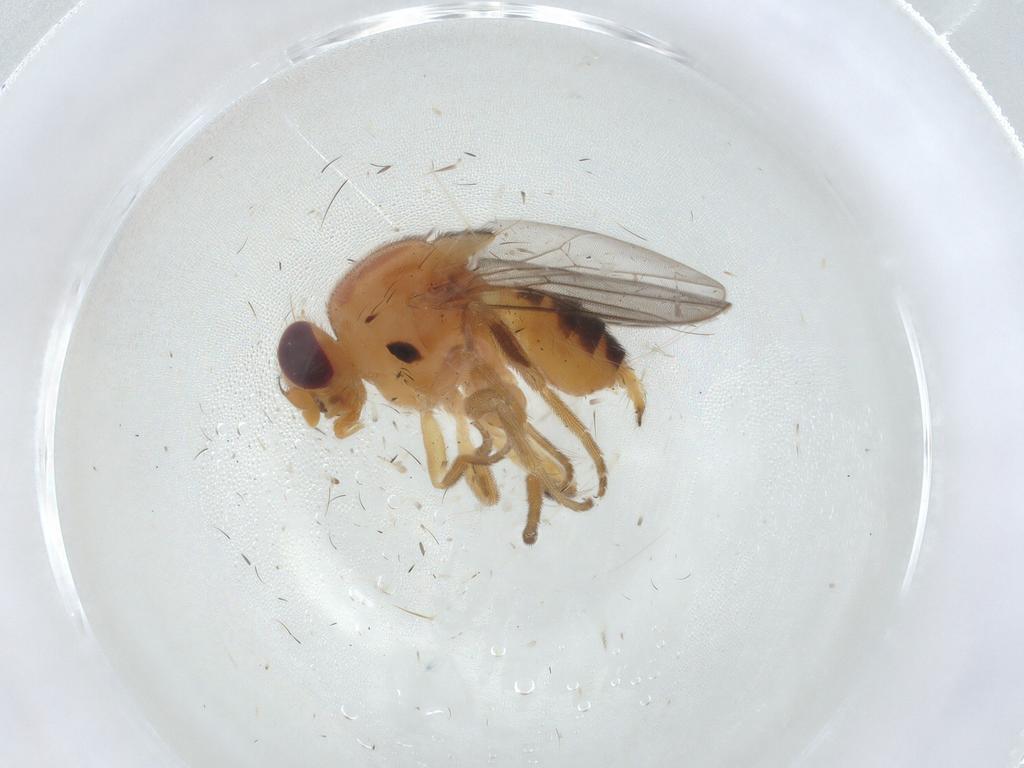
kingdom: Animalia
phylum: Arthropoda
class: Insecta
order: Diptera
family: Chloropidae
